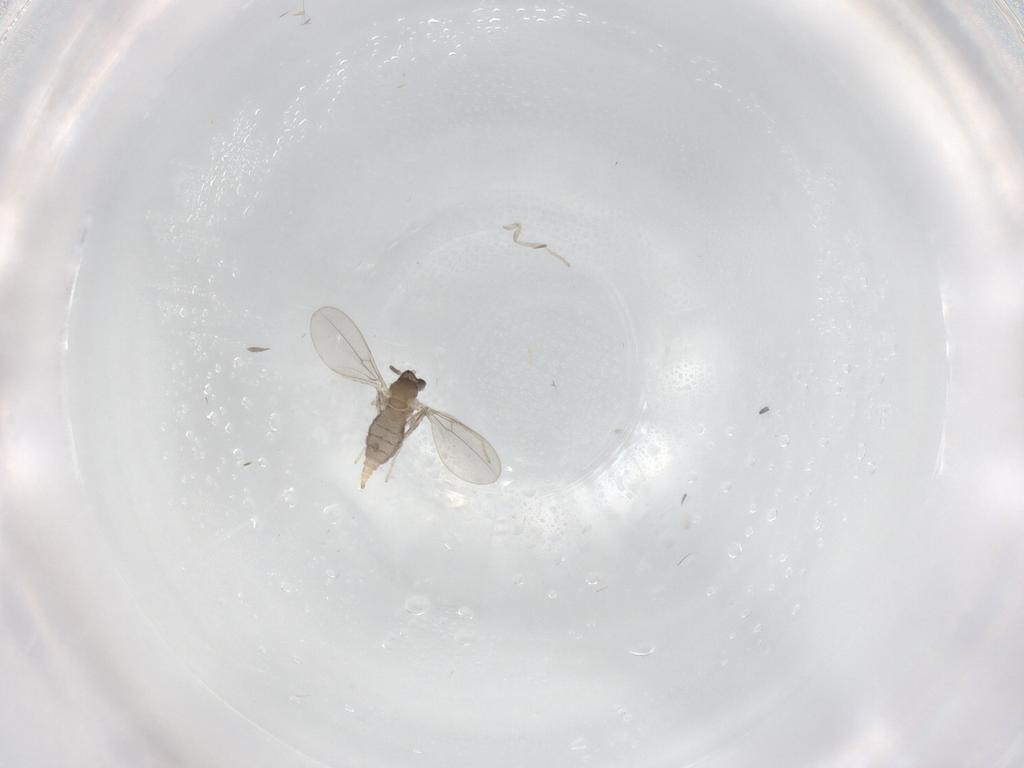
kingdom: Animalia
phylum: Arthropoda
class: Insecta
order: Diptera
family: Cecidomyiidae
